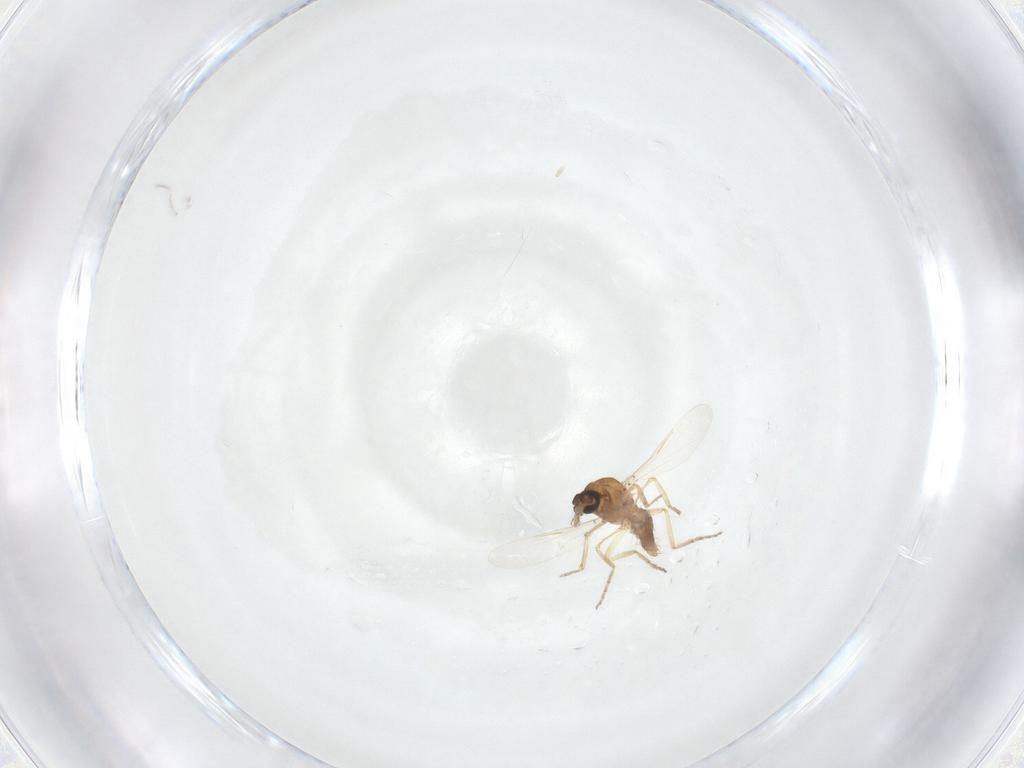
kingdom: Animalia
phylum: Arthropoda
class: Insecta
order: Diptera
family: Ceratopogonidae
